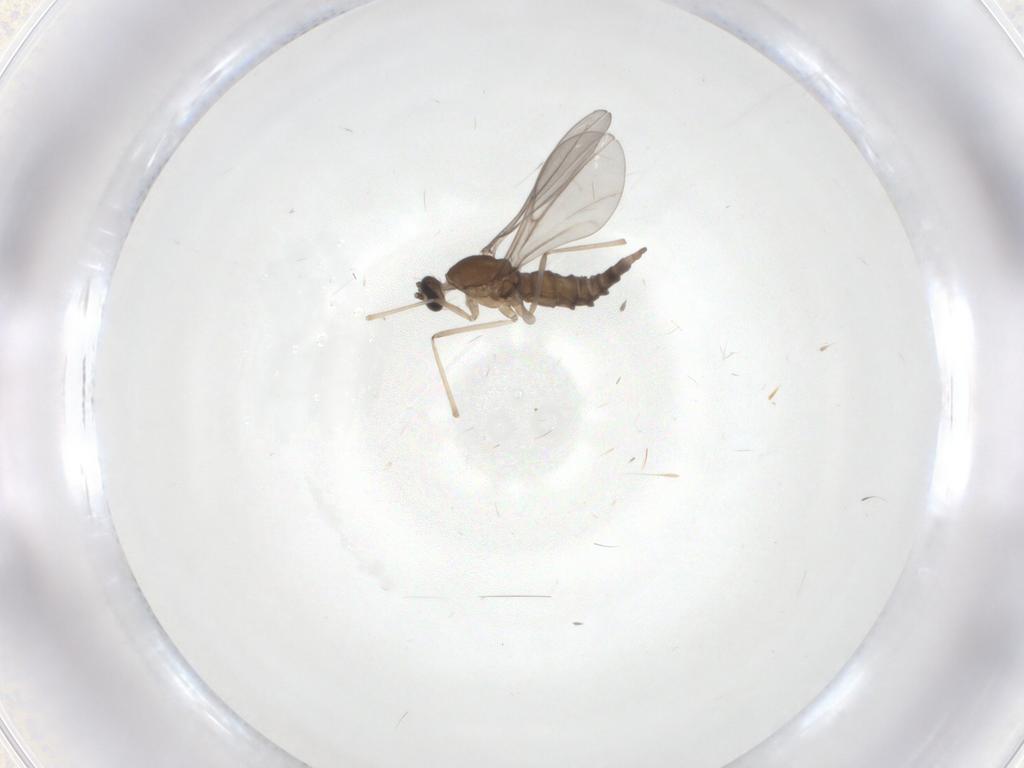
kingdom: Animalia
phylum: Arthropoda
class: Insecta
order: Diptera
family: Cecidomyiidae
